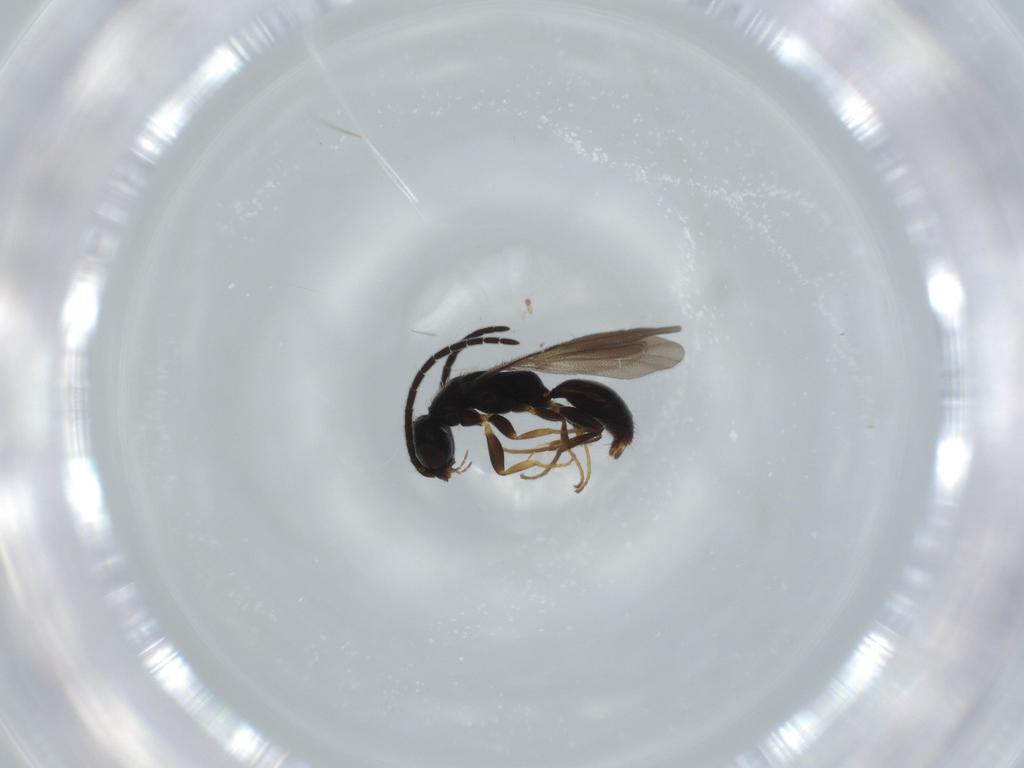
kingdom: Animalia
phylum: Arthropoda
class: Insecta
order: Hymenoptera
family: Bethylidae
